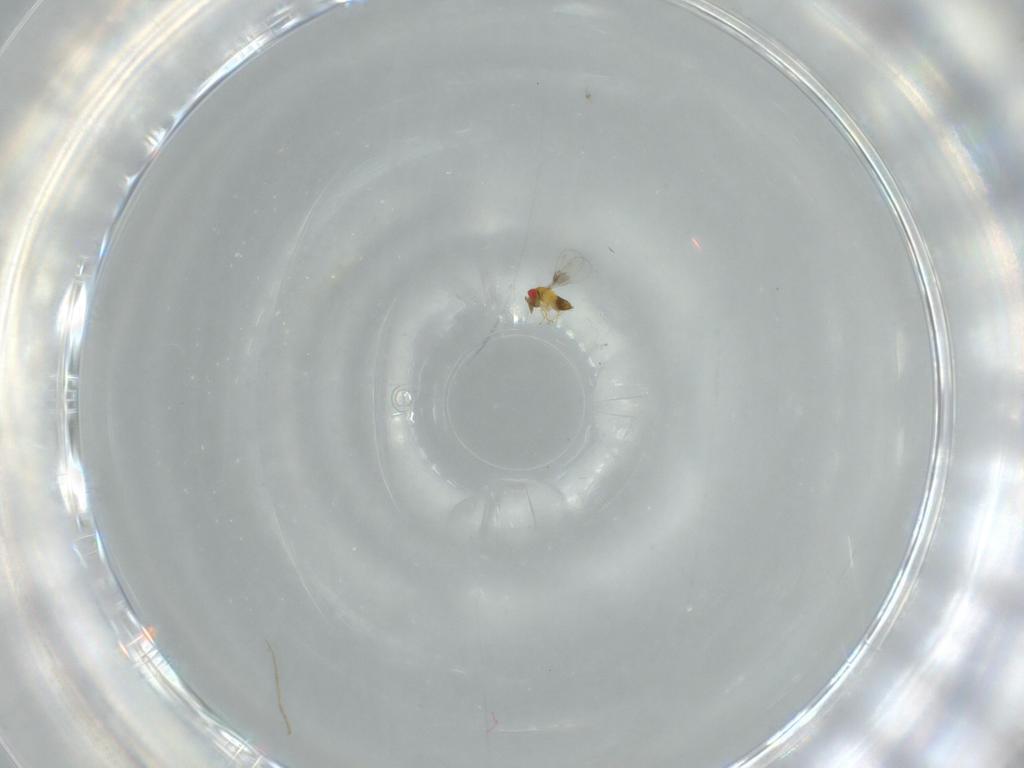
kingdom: Animalia
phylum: Arthropoda
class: Insecta
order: Hymenoptera
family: Trichogrammatidae
